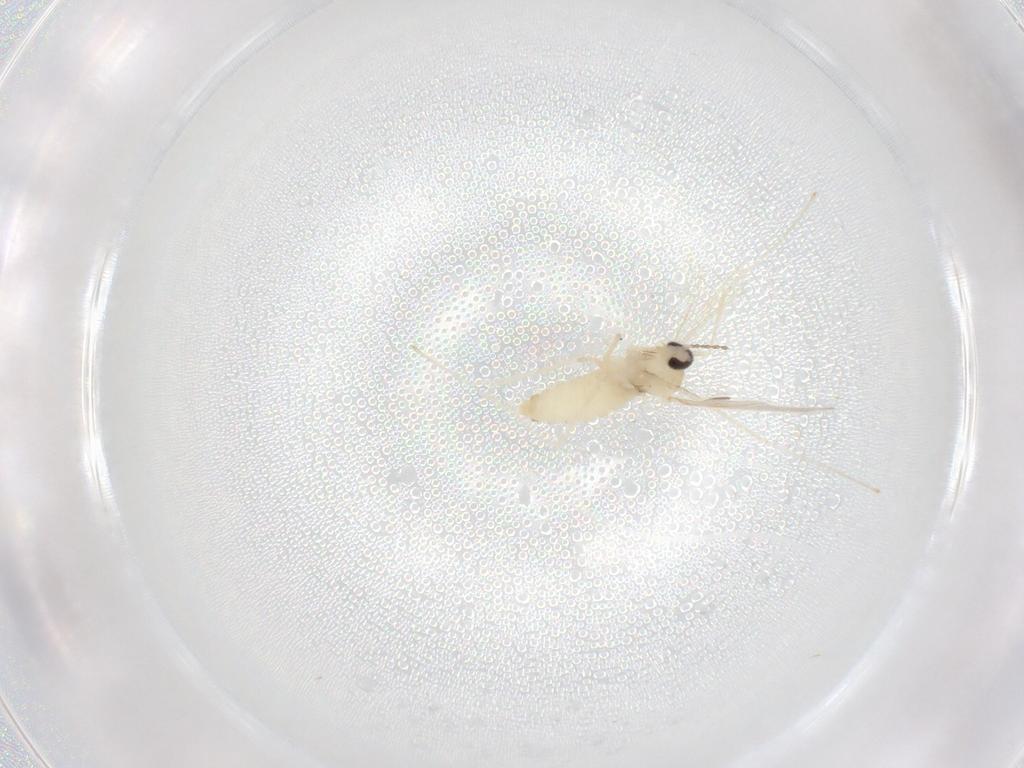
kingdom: Animalia
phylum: Arthropoda
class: Insecta
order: Diptera
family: Cecidomyiidae
